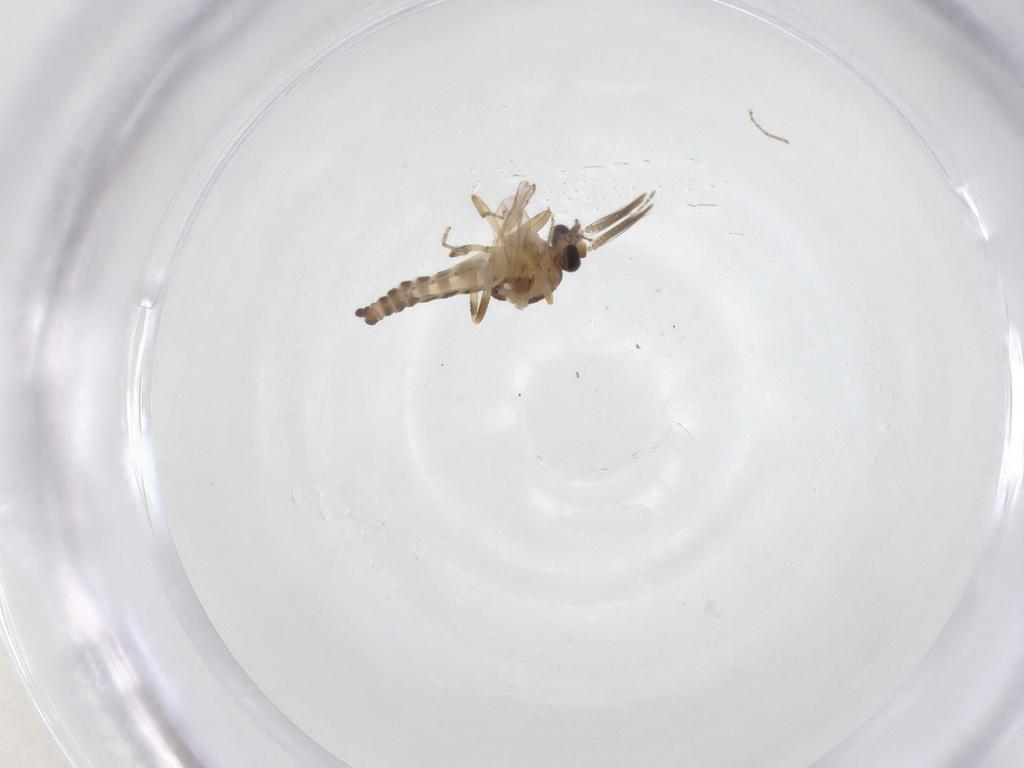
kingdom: Animalia
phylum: Arthropoda
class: Insecta
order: Diptera
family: Ceratopogonidae
